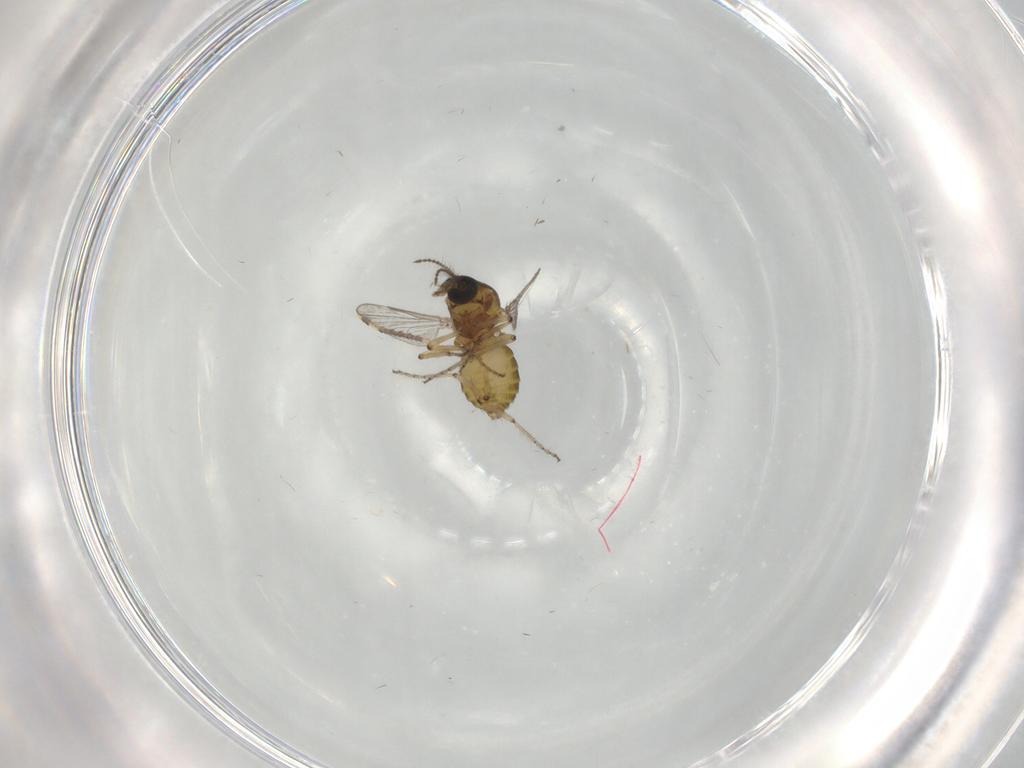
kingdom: Animalia
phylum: Arthropoda
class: Insecta
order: Diptera
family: Ceratopogonidae
